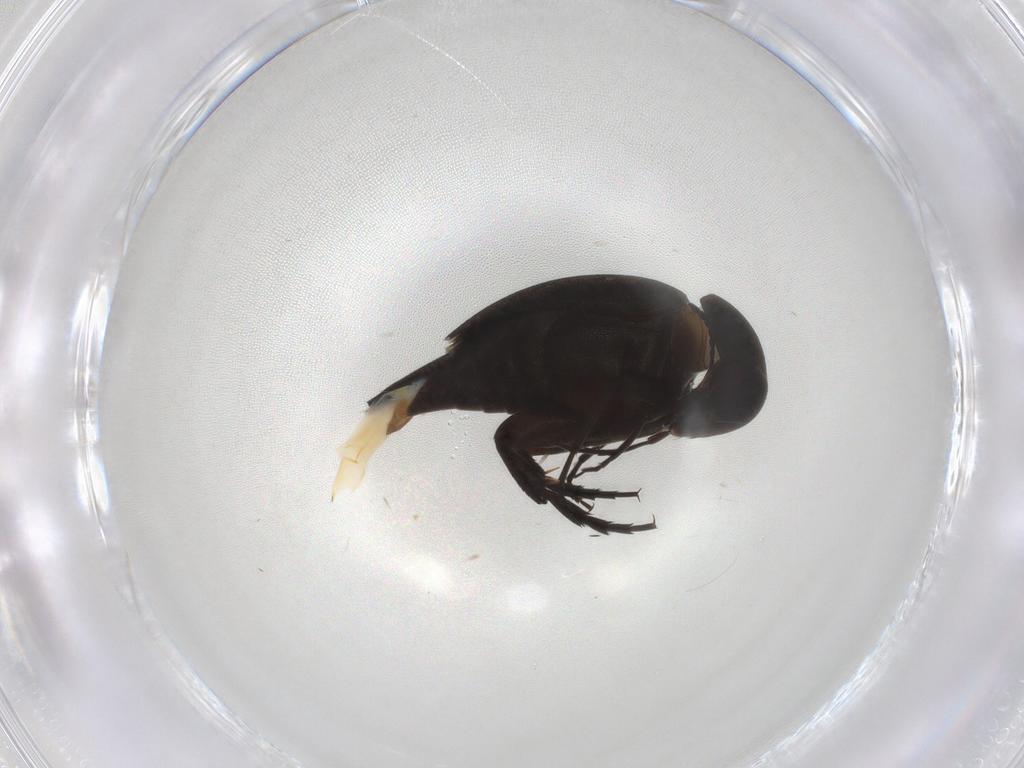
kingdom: Animalia
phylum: Arthropoda
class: Insecta
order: Coleoptera
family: Mordellidae
